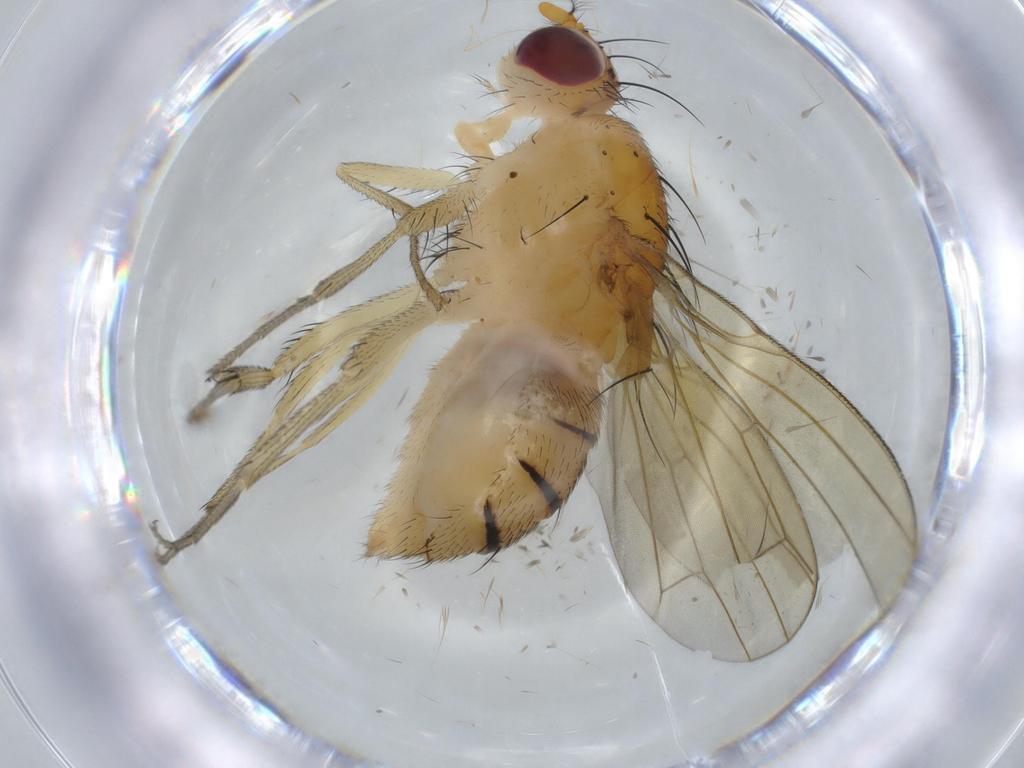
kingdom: Animalia
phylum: Arthropoda
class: Insecta
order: Diptera
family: Lauxaniidae
